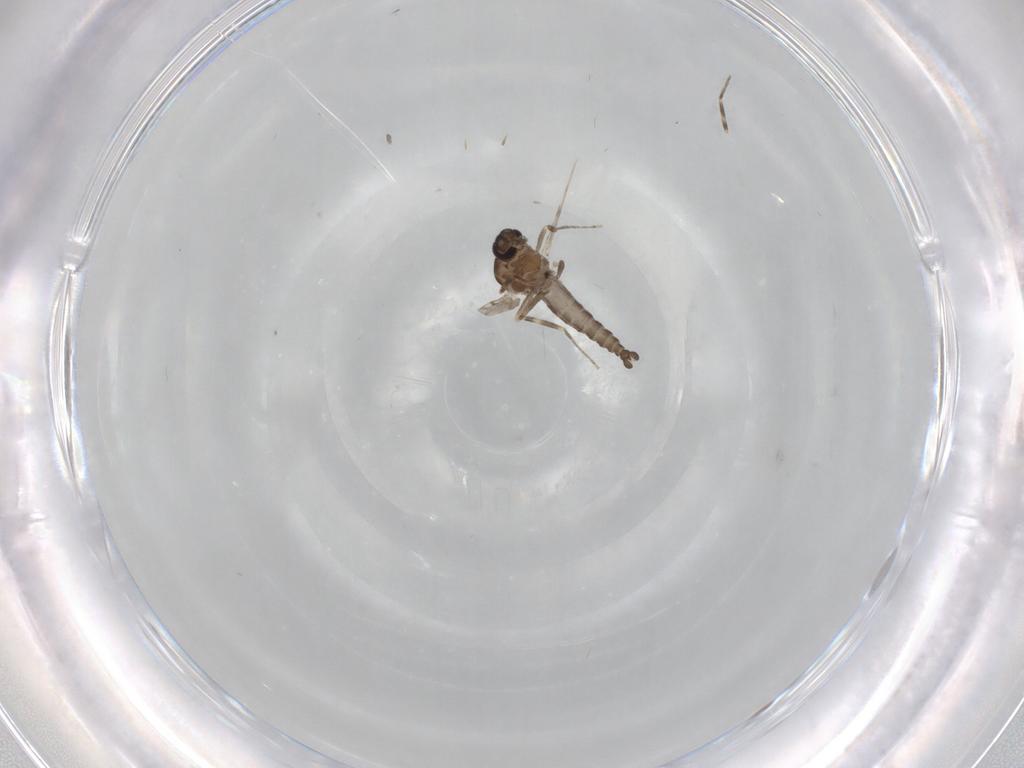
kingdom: Animalia
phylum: Arthropoda
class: Insecta
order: Diptera
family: Ceratopogonidae
